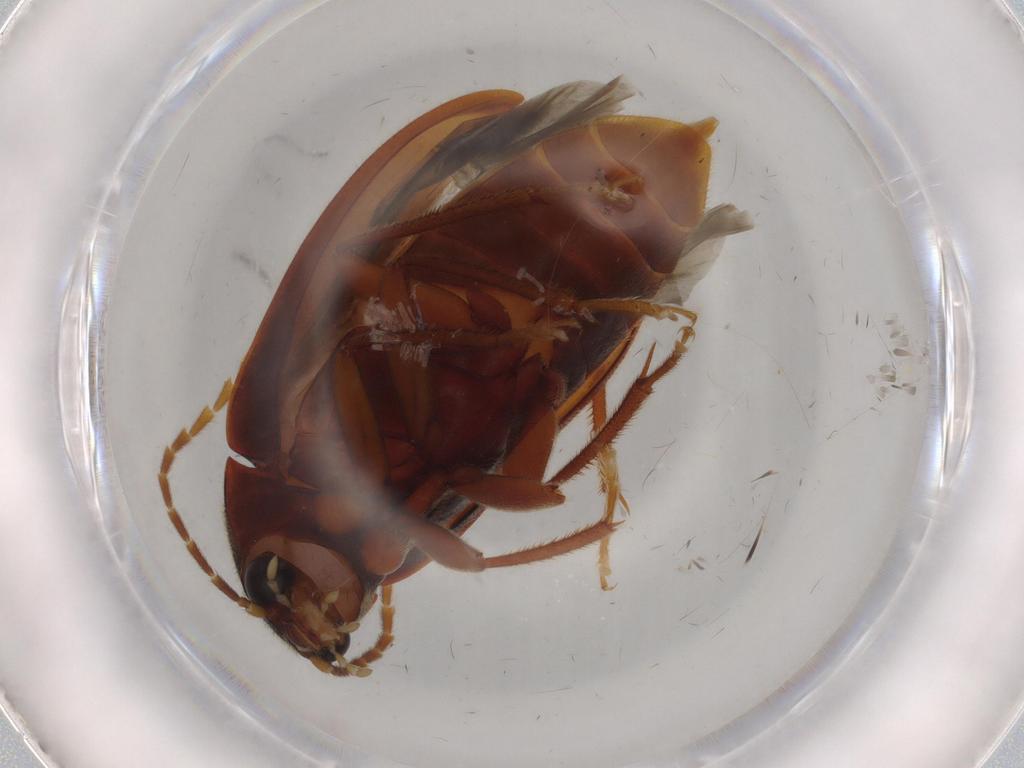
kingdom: Animalia
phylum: Arthropoda
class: Insecta
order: Coleoptera
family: Ptilodactylidae
